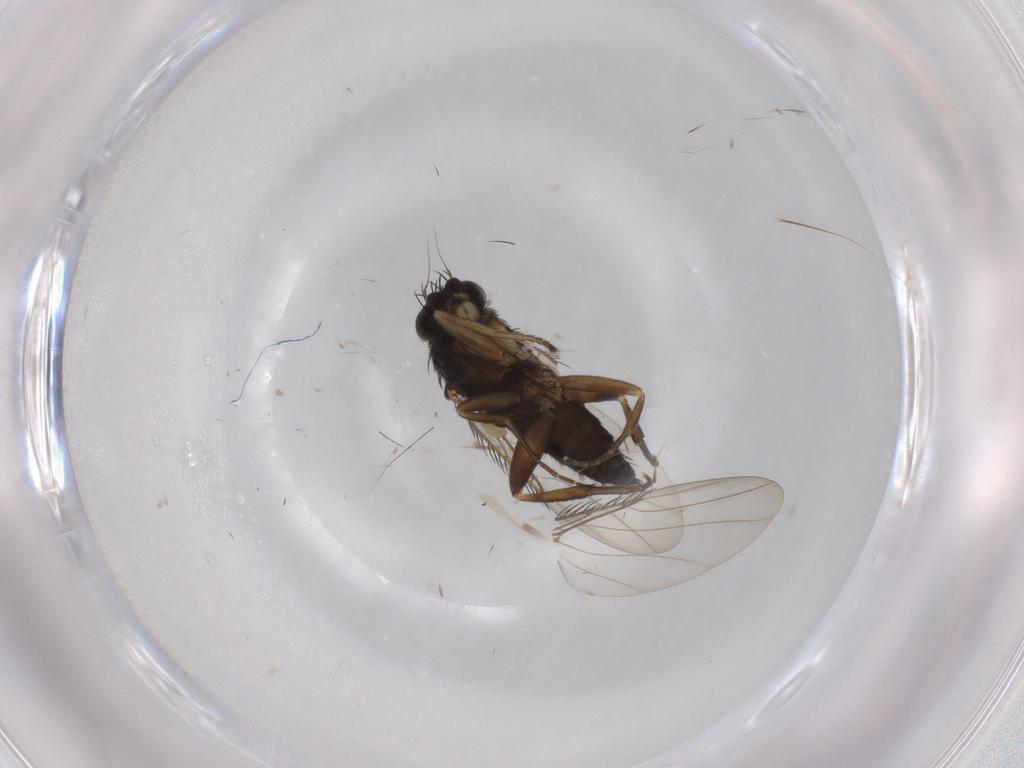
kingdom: Animalia
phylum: Arthropoda
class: Insecta
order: Diptera
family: Phoridae
